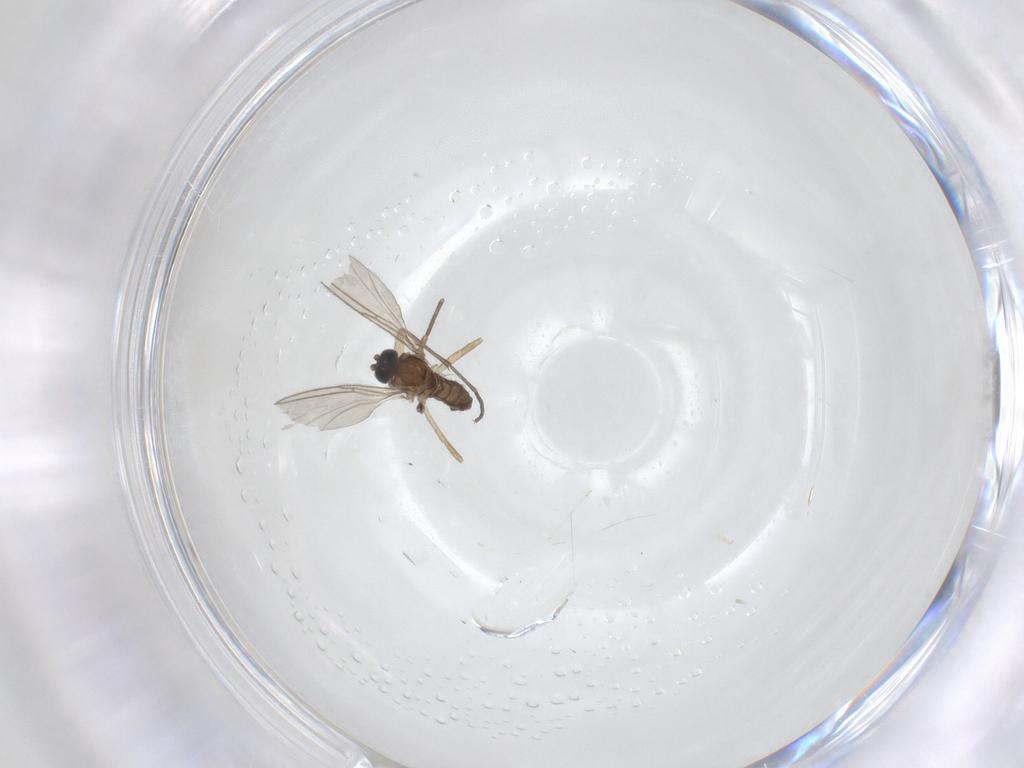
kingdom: Animalia
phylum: Arthropoda
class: Insecta
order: Diptera
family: Sciaridae
